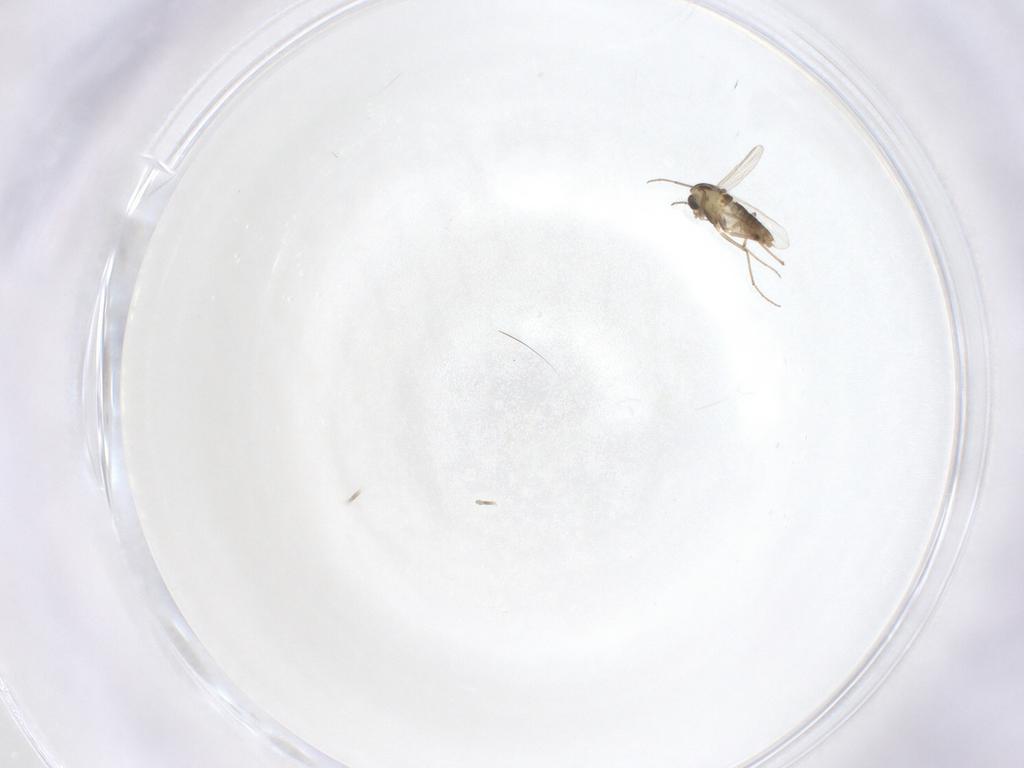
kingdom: Animalia
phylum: Arthropoda
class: Insecta
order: Diptera
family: Chironomidae
